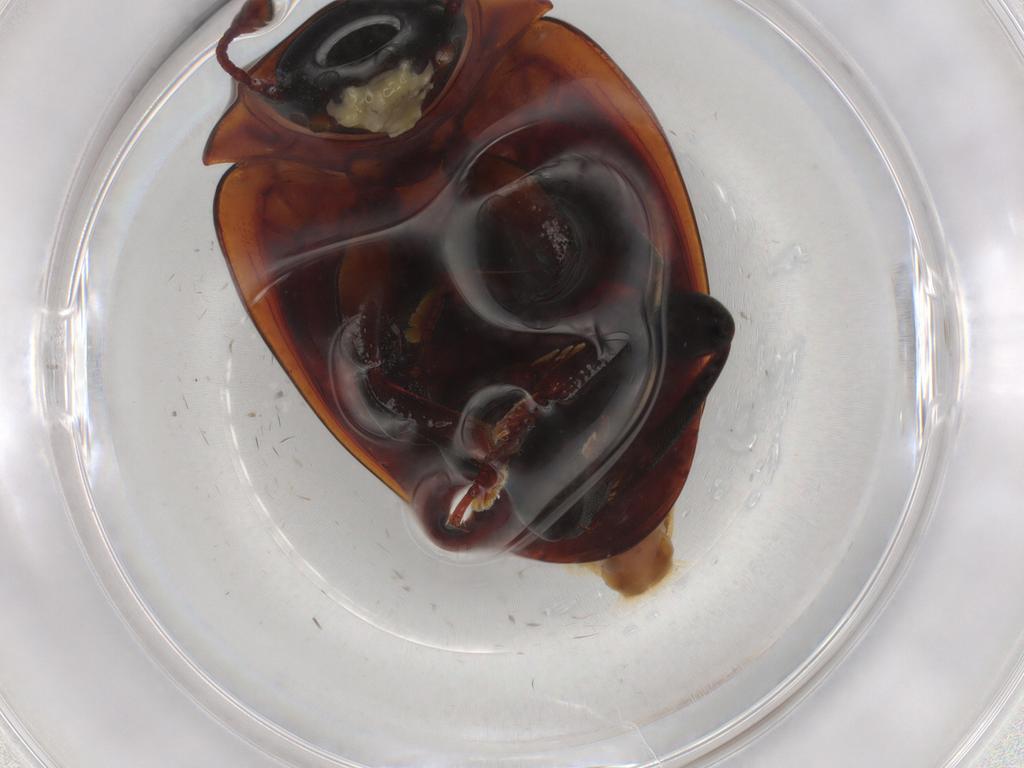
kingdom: Animalia
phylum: Arthropoda
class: Insecta
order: Coleoptera
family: Zopheridae
